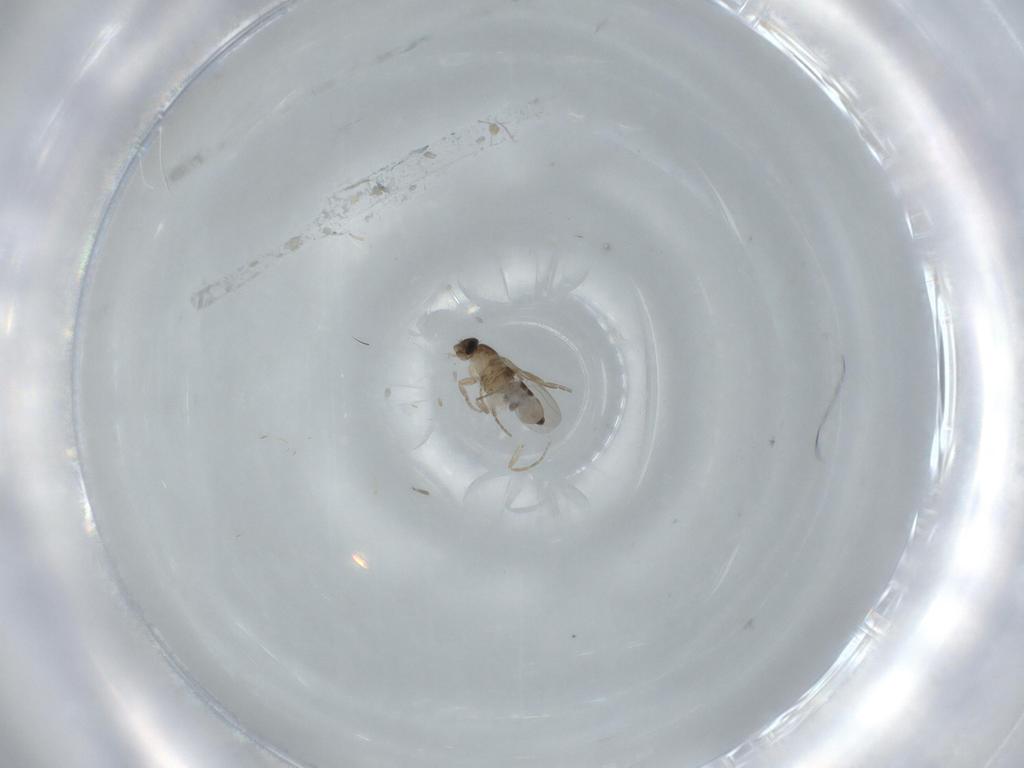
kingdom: Animalia
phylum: Arthropoda
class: Insecta
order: Diptera
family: Phoridae
